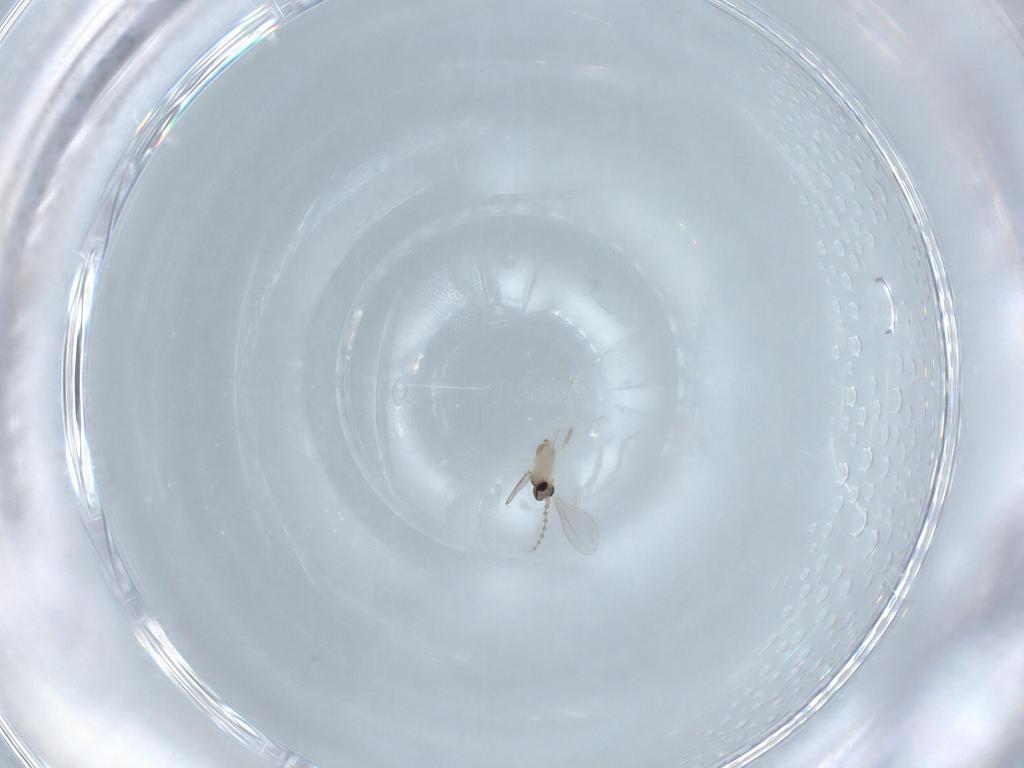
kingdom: Animalia
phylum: Arthropoda
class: Insecta
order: Diptera
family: Cecidomyiidae
